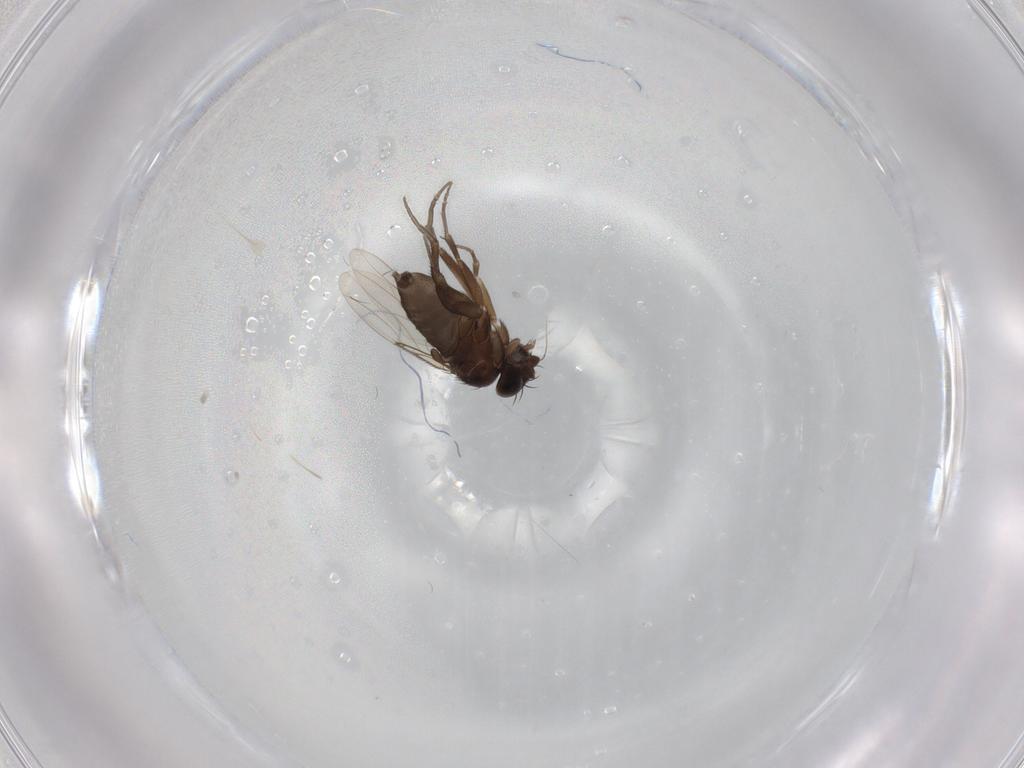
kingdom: Animalia
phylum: Arthropoda
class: Insecta
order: Diptera
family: Phoridae
